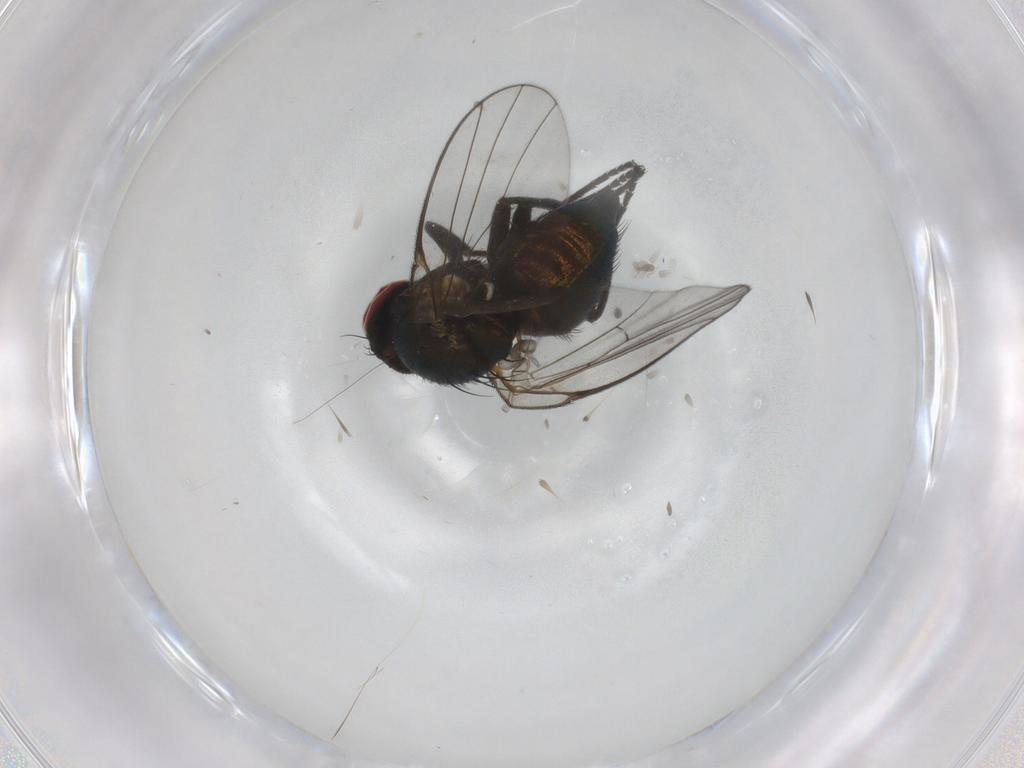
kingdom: Animalia
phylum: Arthropoda
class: Insecta
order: Diptera
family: Agromyzidae
